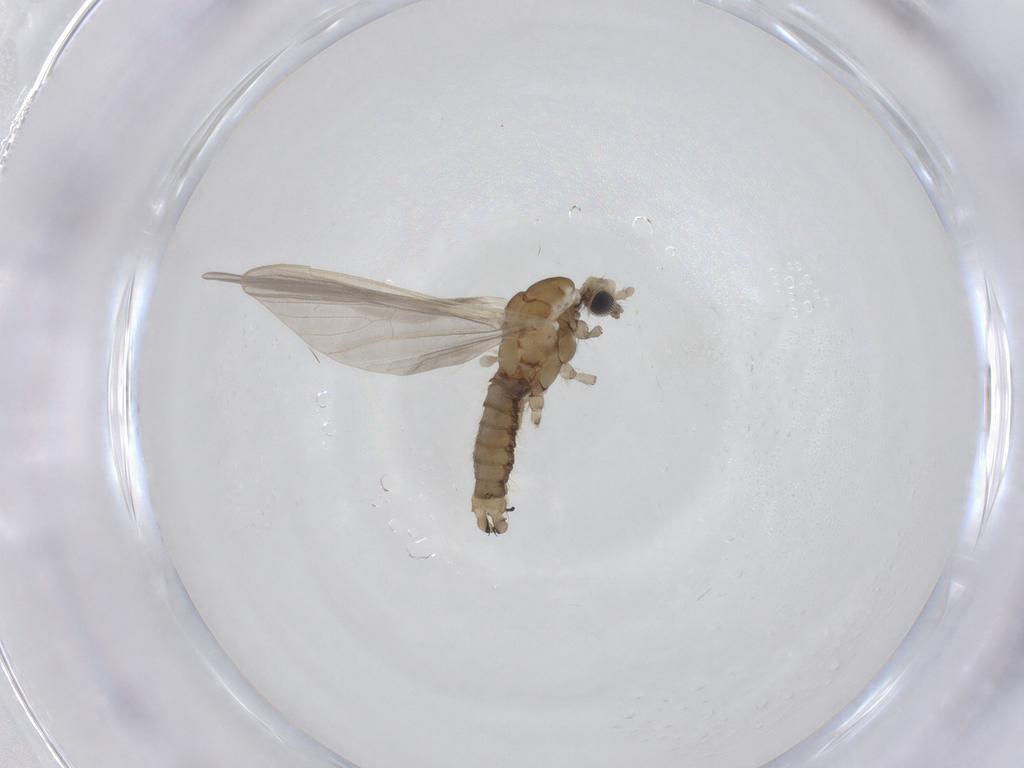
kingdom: Animalia
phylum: Arthropoda
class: Insecta
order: Diptera
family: Limoniidae
